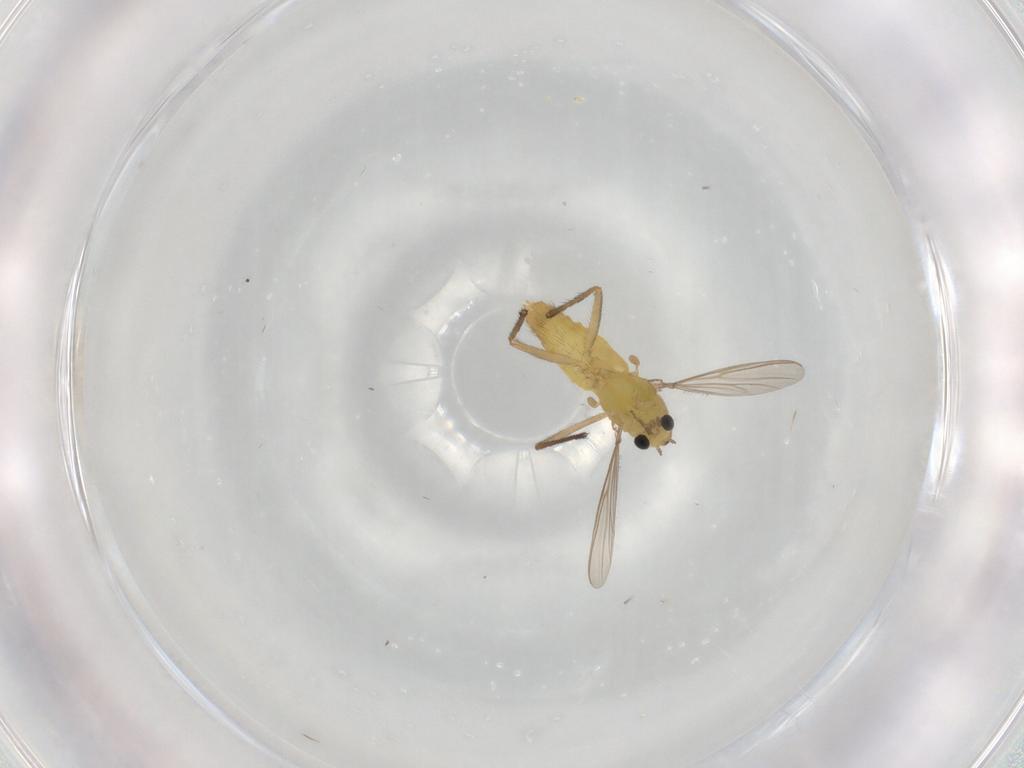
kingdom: Animalia
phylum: Arthropoda
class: Insecta
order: Diptera
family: Chironomidae
